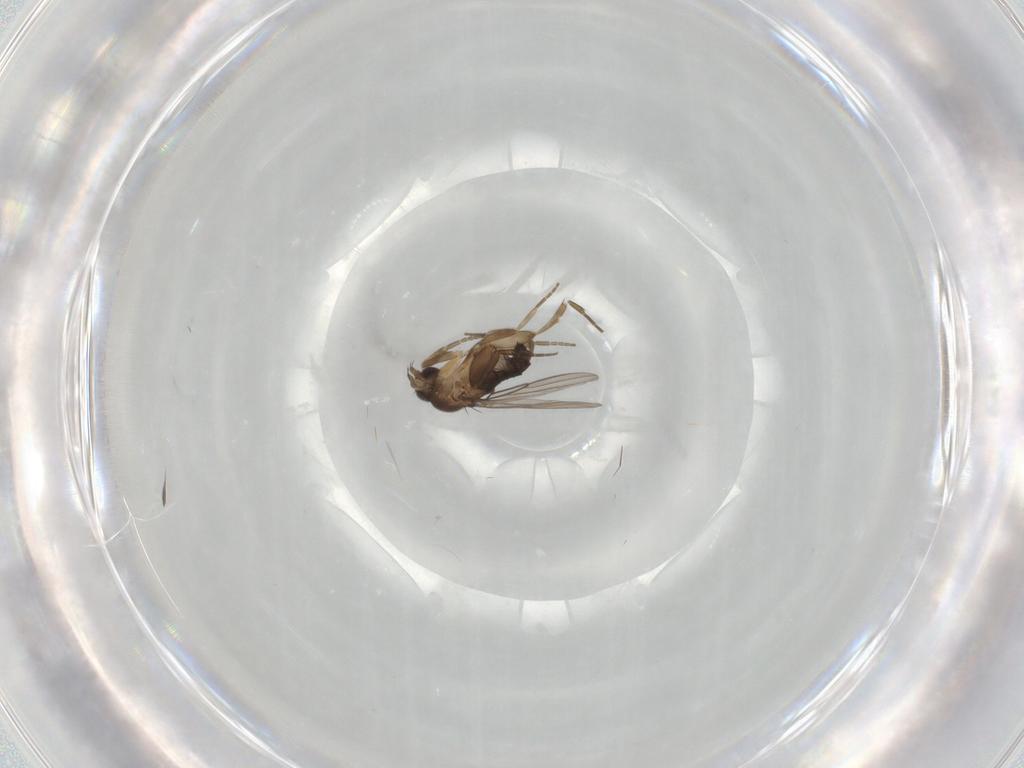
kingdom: Animalia
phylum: Arthropoda
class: Insecta
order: Diptera
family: Phoridae
